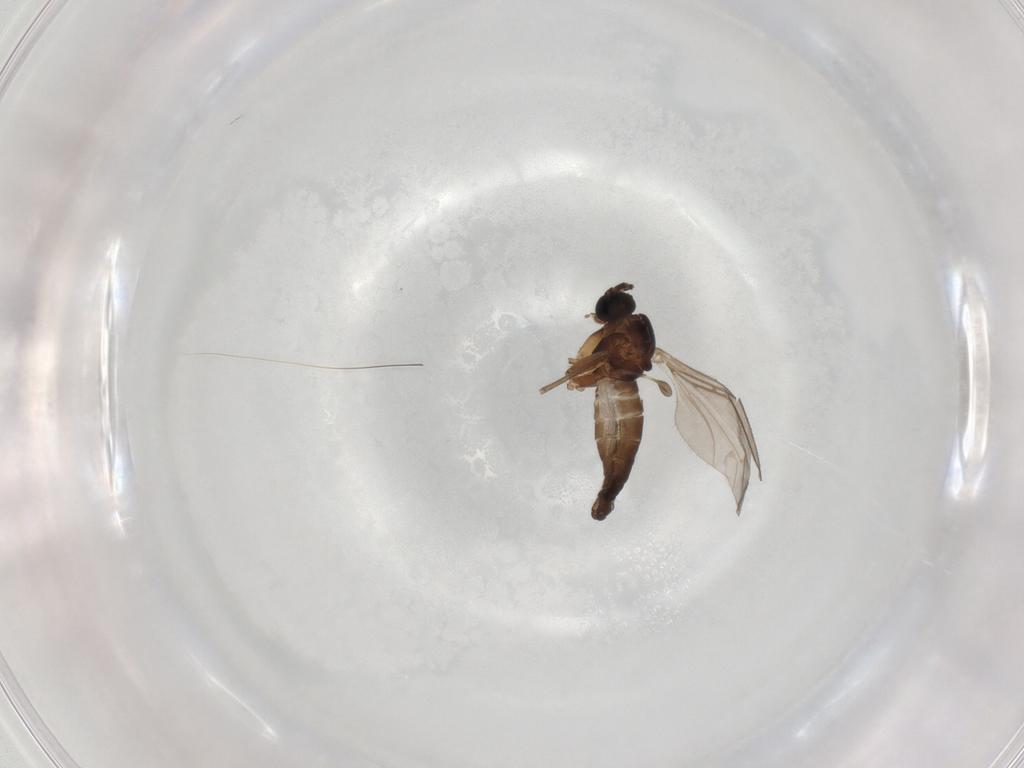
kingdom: Animalia
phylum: Arthropoda
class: Insecta
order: Diptera
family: Sciaridae
